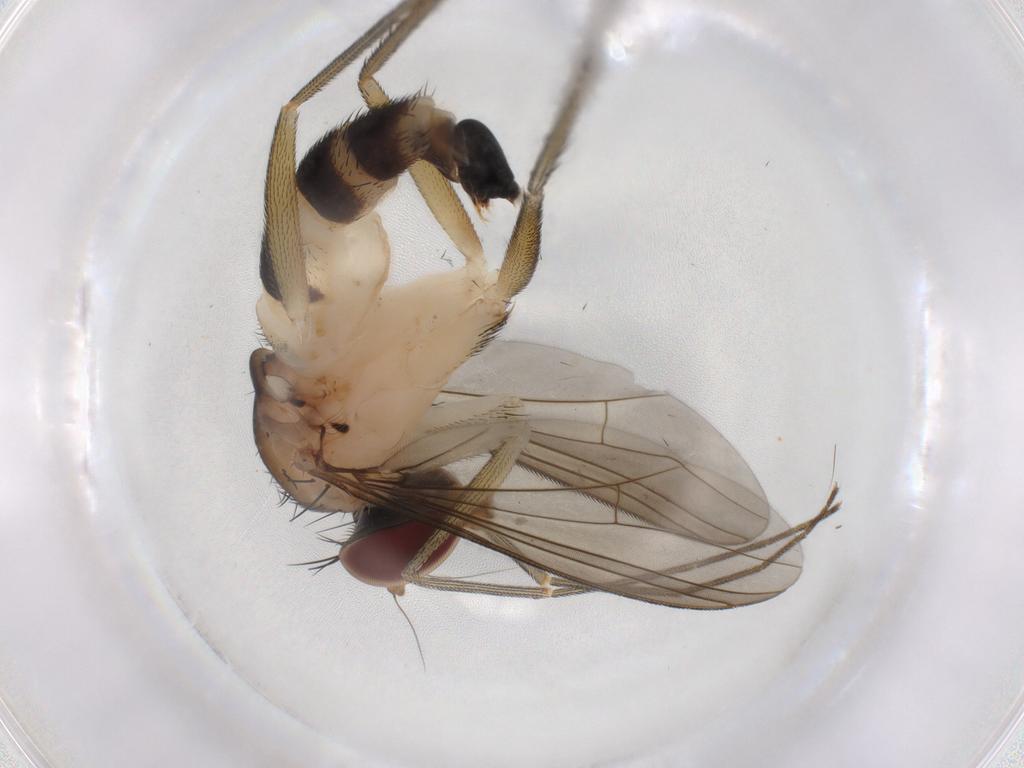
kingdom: Animalia
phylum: Arthropoda
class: Insecta
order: Diptera
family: Dolichopodidae
